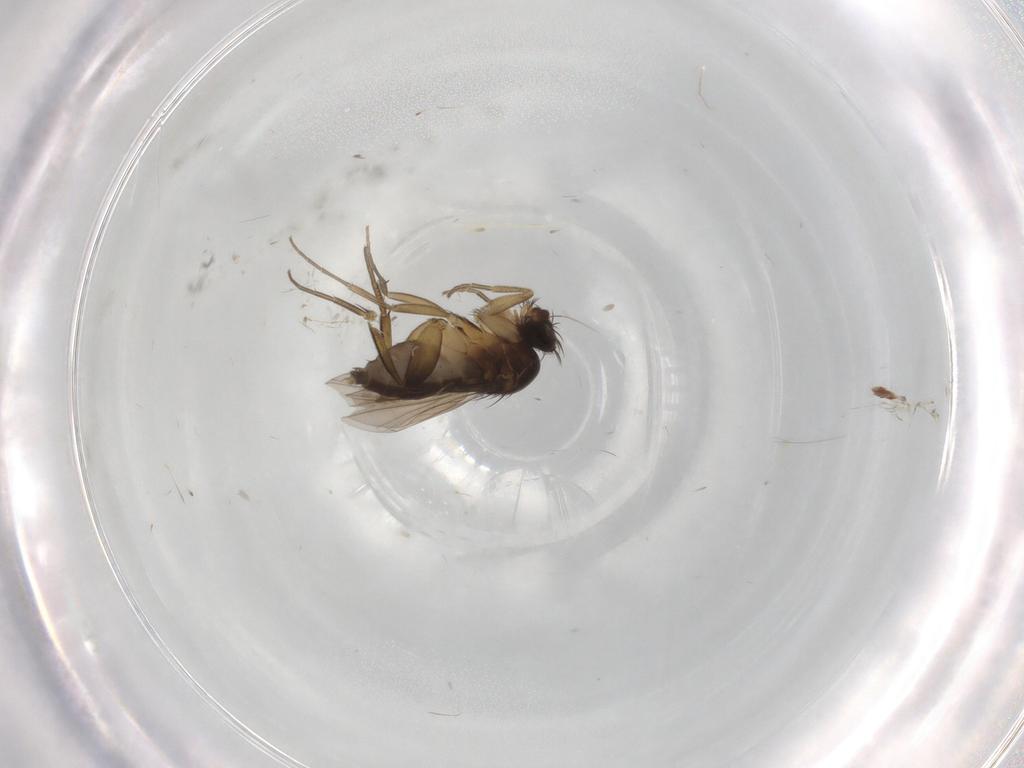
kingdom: Animalia
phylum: Arthropoda
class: Insecta
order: Diptera
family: Phoridae
